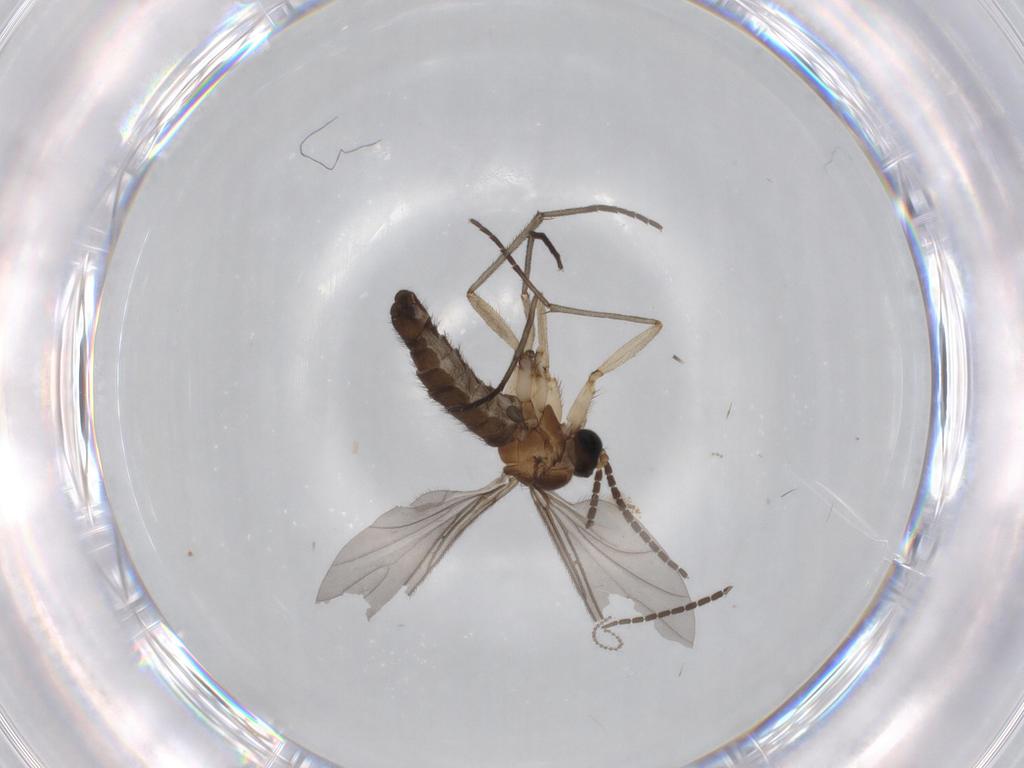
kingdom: Animalia
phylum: Arthropoda
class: Insecta
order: Diptera
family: Sciaridae
